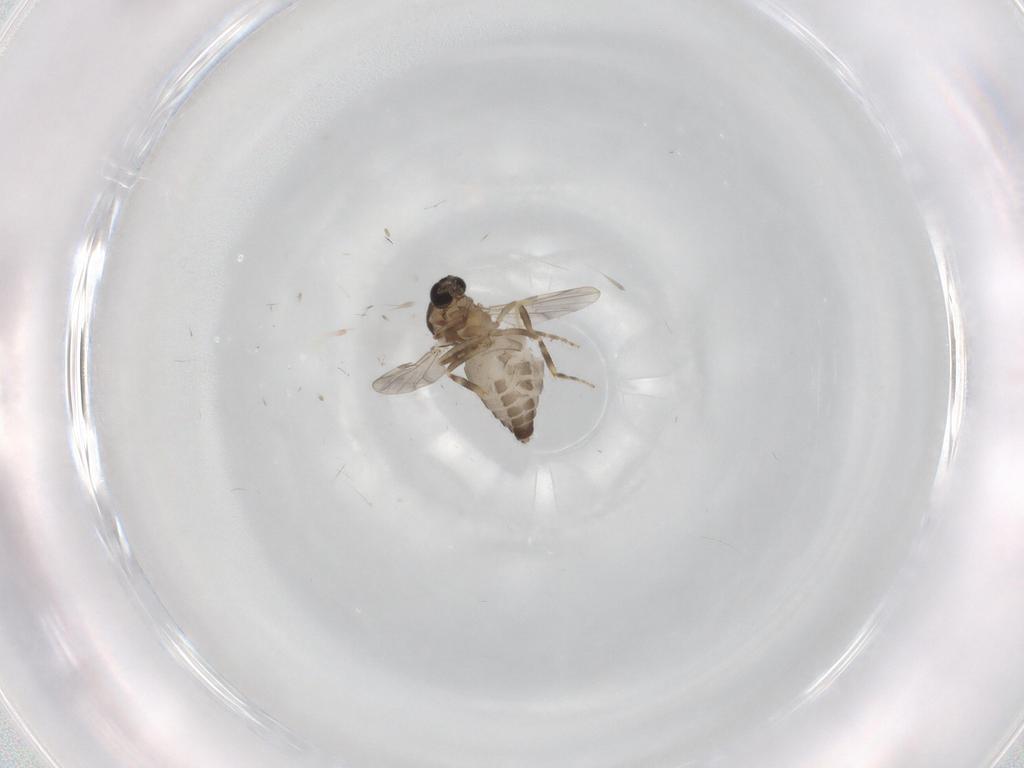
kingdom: Animalia
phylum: Arthropoda
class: Insecta
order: Diptera
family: Ceratopogonidae
